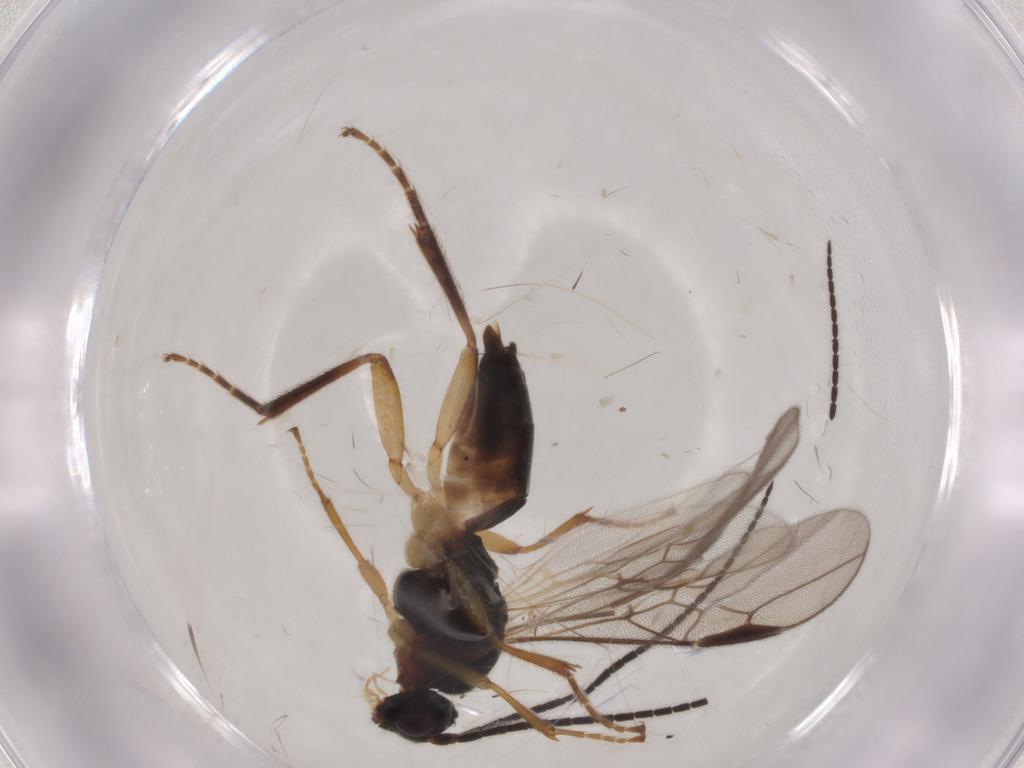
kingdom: Animalia
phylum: Arthropoda
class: Insecta
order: Hymenoptera
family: Braconidae
